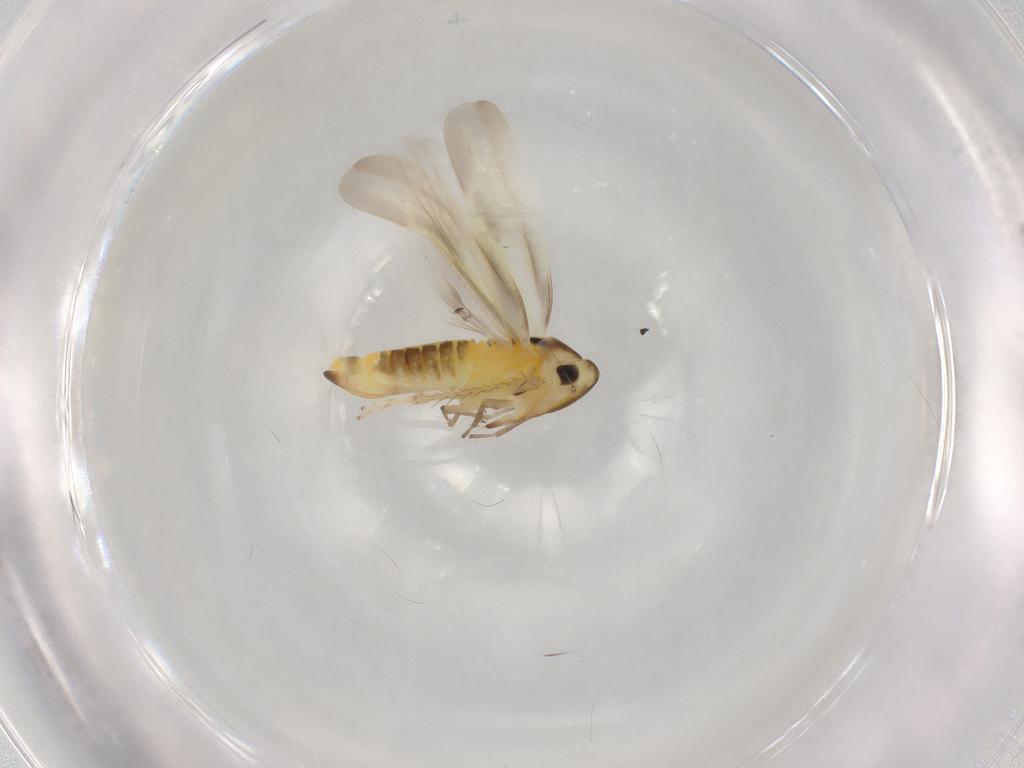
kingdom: Animalia
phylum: Arthropoda
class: Insecta
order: Hemiptera
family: Cicadellidae
